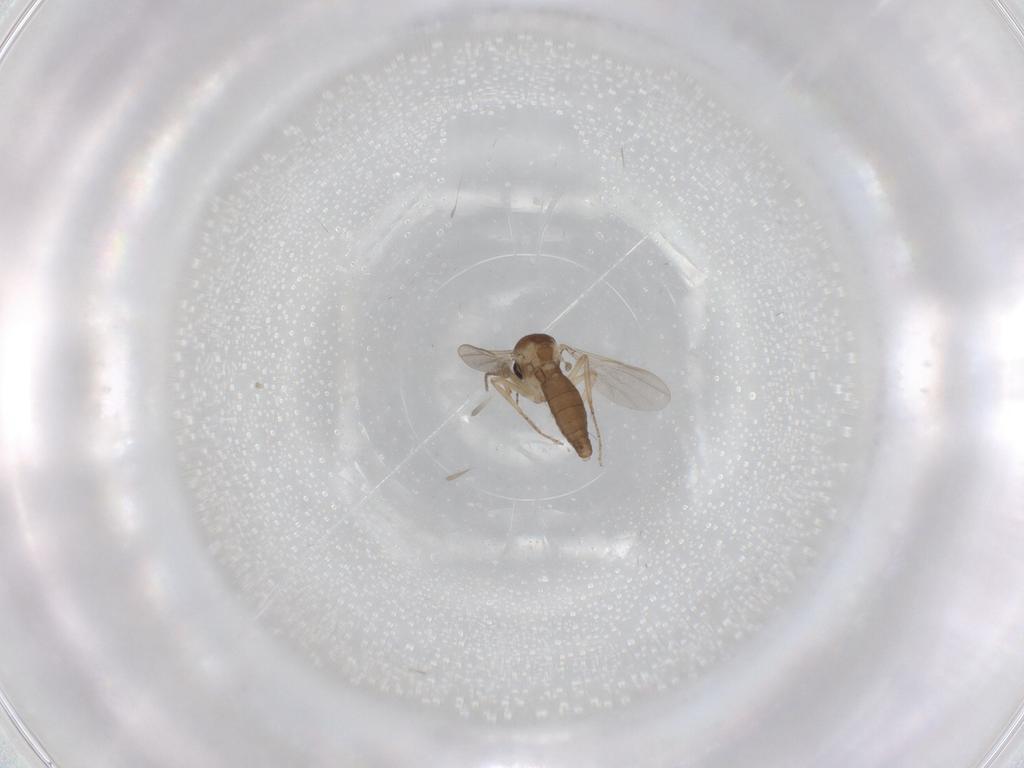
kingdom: Animalia
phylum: Arthropoda
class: Insecta
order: Diptera
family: Ceratopogonidae
